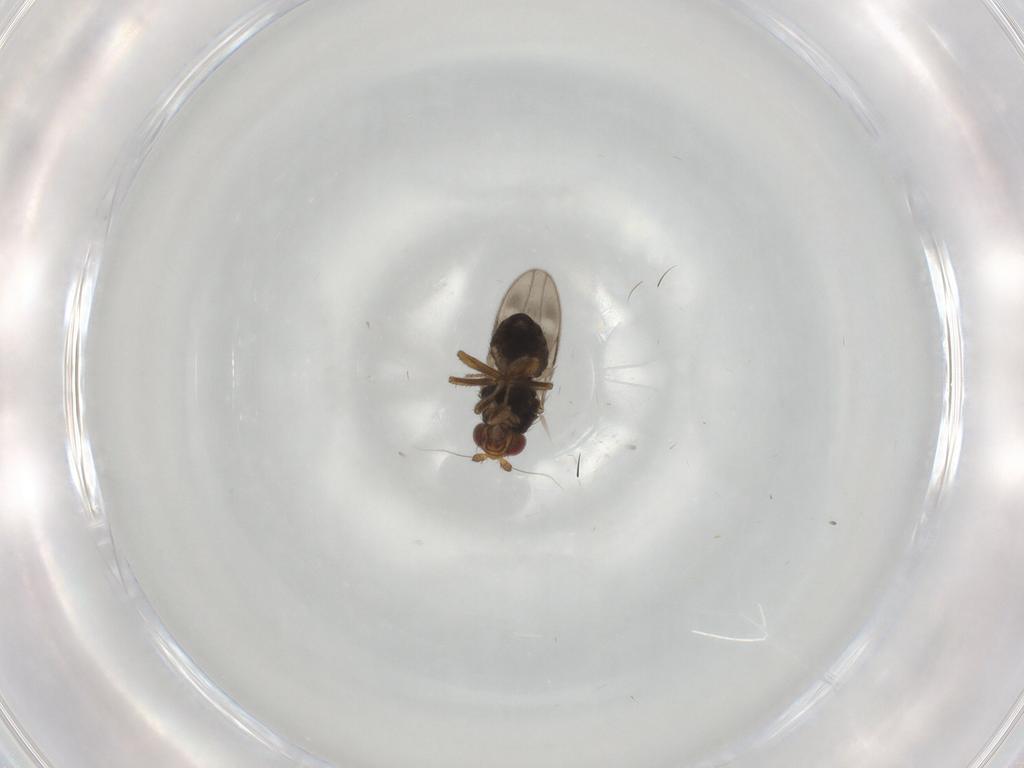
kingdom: Animalia
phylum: Arthropoda
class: Insecta
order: Diptera
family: Sphaeroceridae
